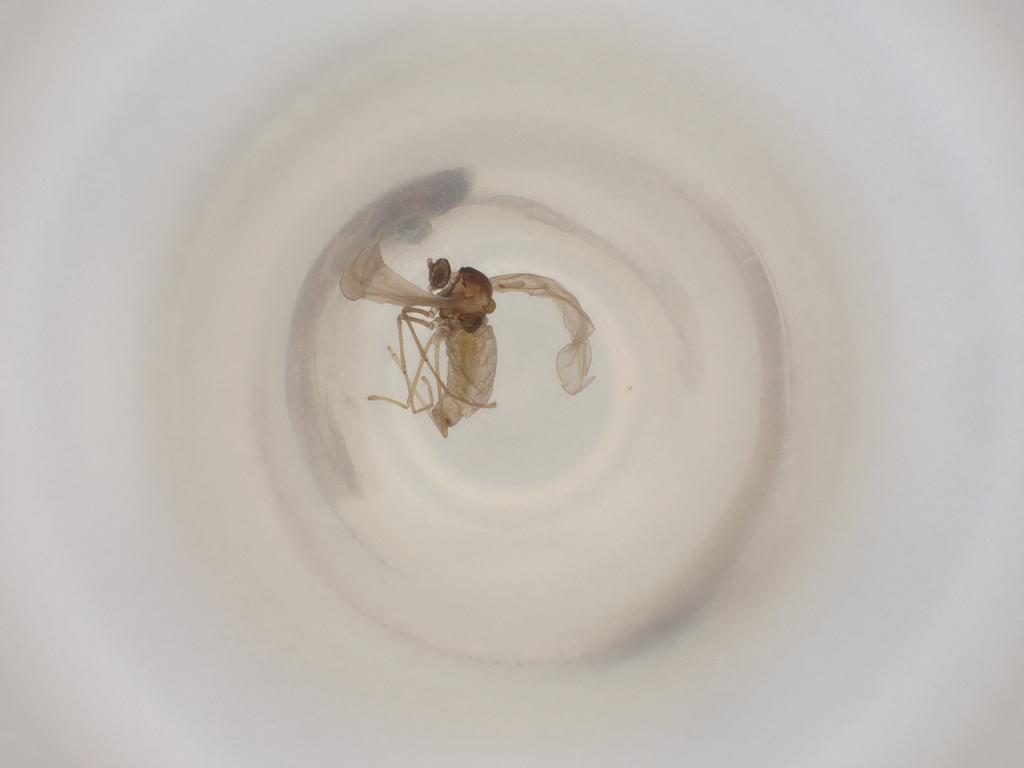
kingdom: Animalia
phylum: Arthropoda
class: Insecta
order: Diptera
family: Cecidomyiidae
